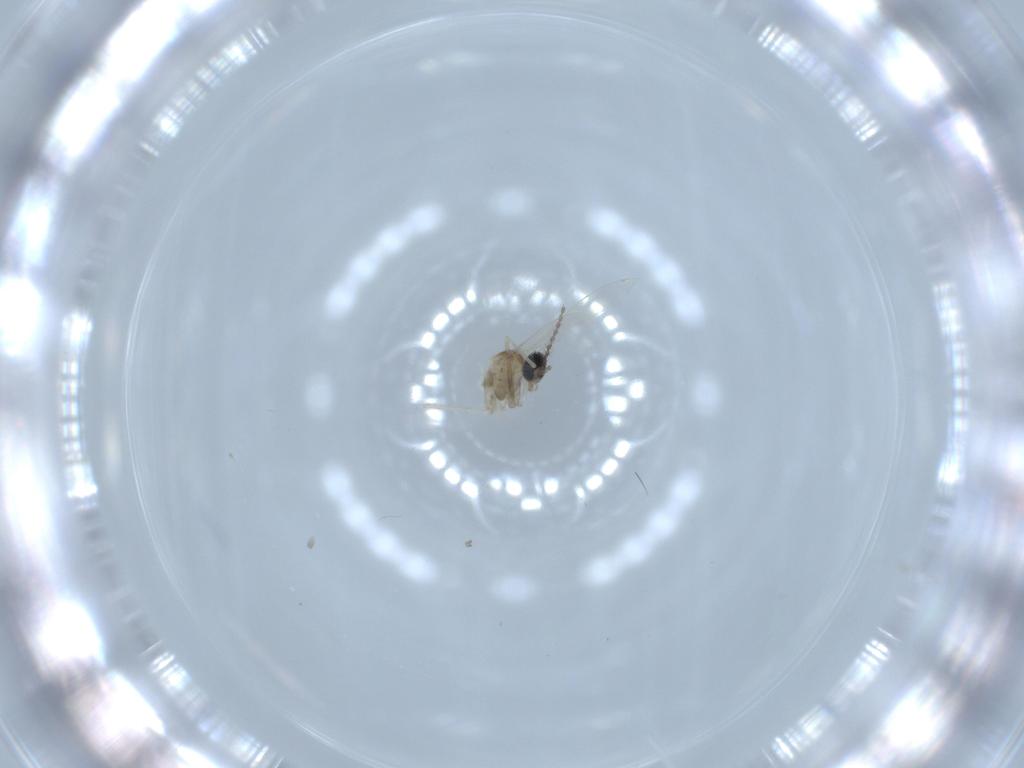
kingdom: Animalia
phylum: Arthropoda
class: Insecta
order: Diptera
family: Cecidomyiidae
